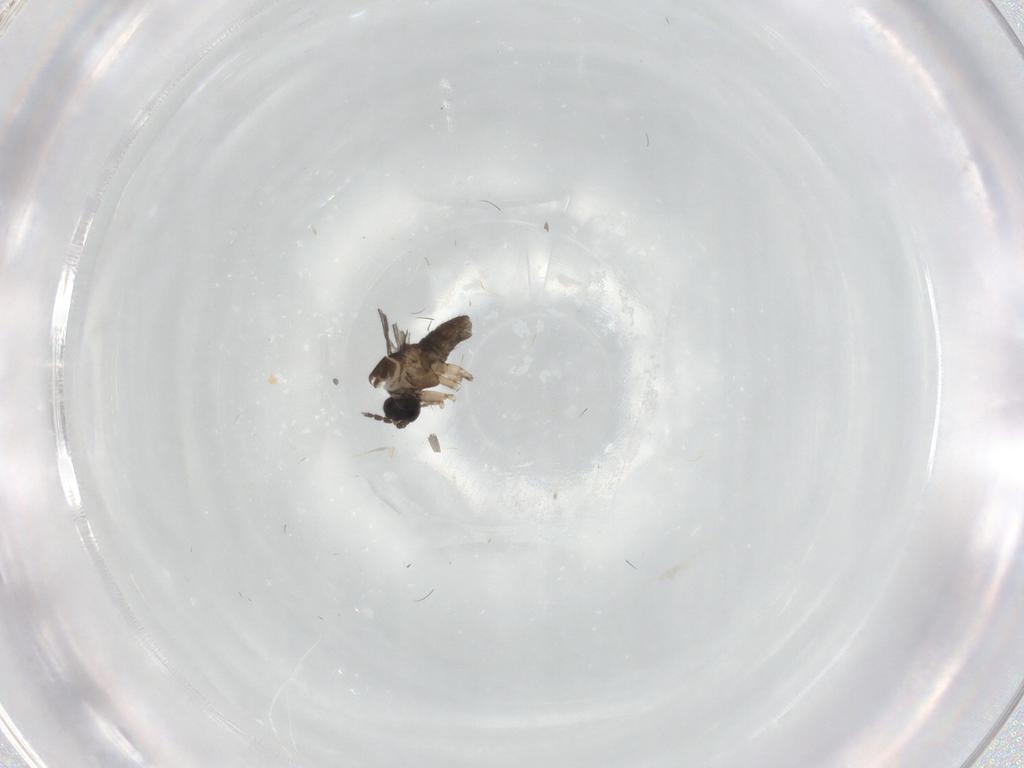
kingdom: Animalia
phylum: Arthropoda
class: Insecta
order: Diptera
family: Sciaridae
